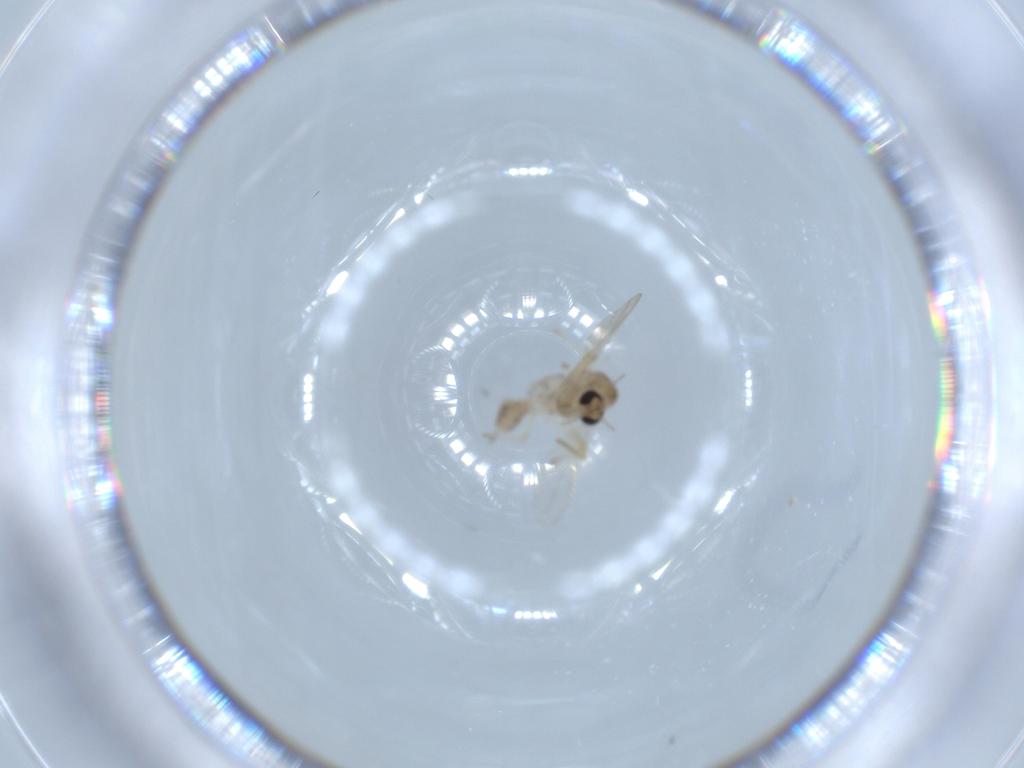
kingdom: Animalia
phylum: Arthropoda
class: Insecta
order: Diptera
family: Chironomidae
